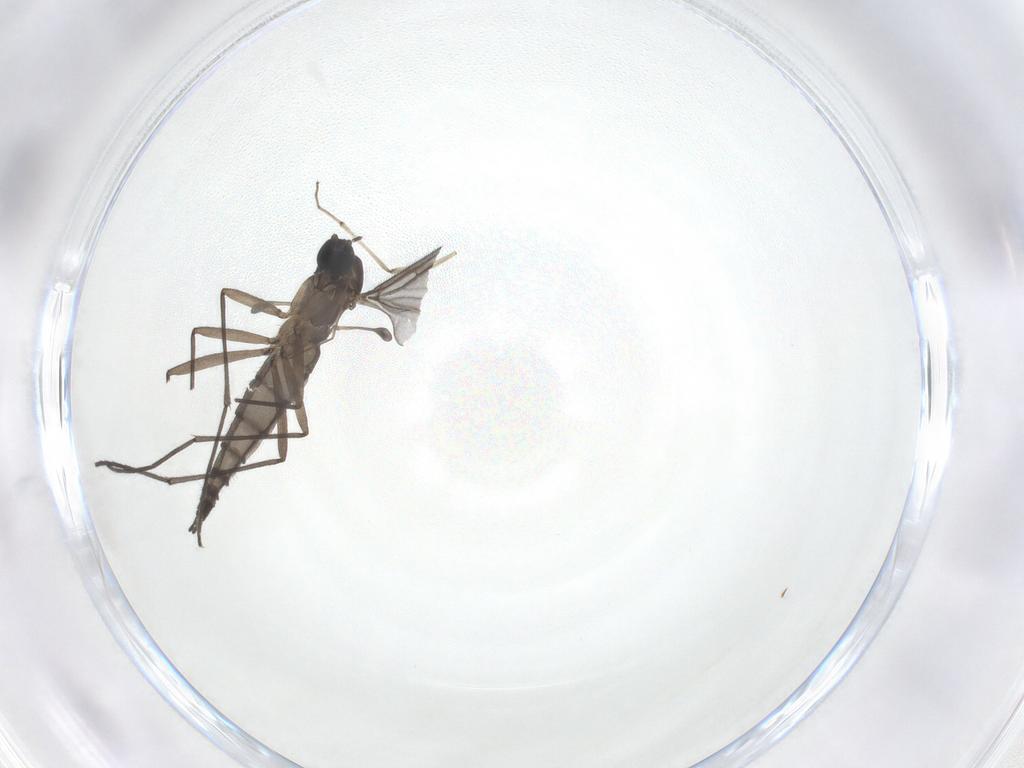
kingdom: Animalia
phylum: Arthropoda
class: Insecta
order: Diptera
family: Sciaridae
